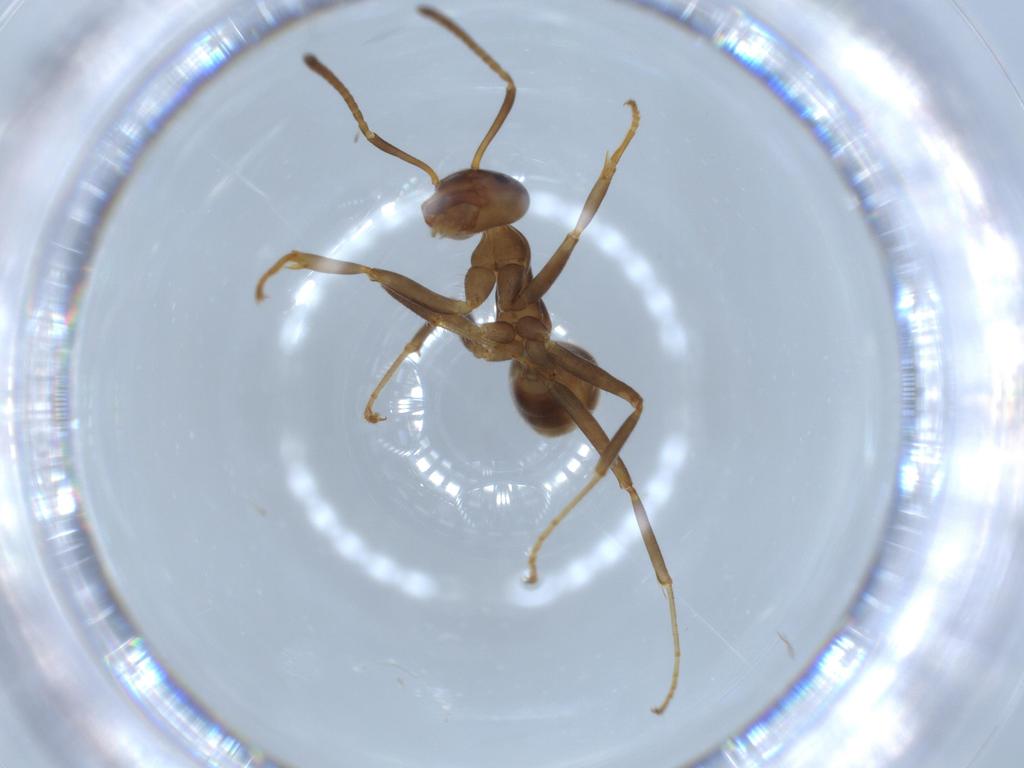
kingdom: Animalia
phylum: Arthropoda
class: Insecta
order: Hymenoptera
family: Formicidae
